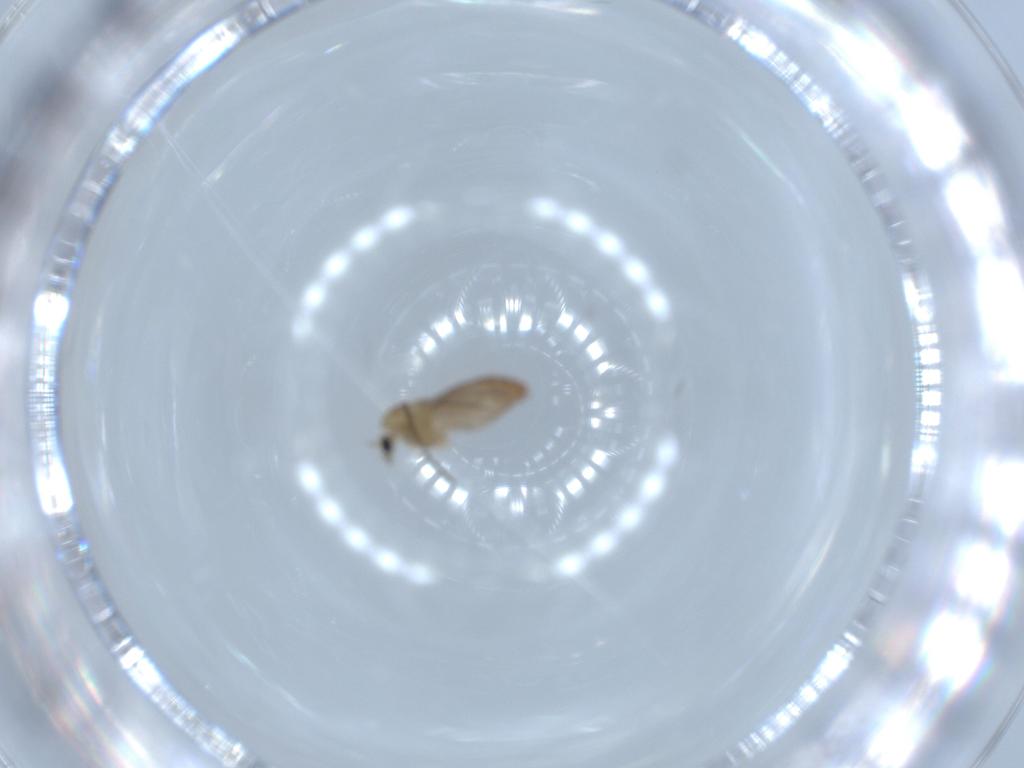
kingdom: Animalia
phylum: Arthropoda
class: Insecta
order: Diptera
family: Chironomidae
